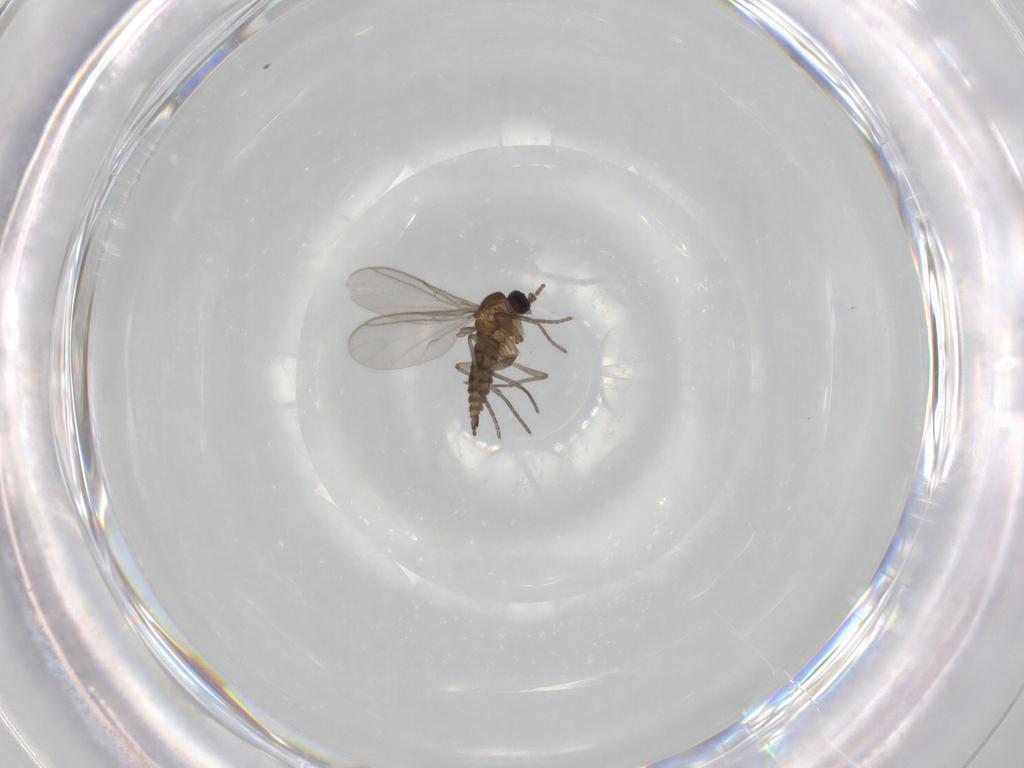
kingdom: Animalia
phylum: Arthropoda
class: Insecta
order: Diptera
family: Sciaridae
